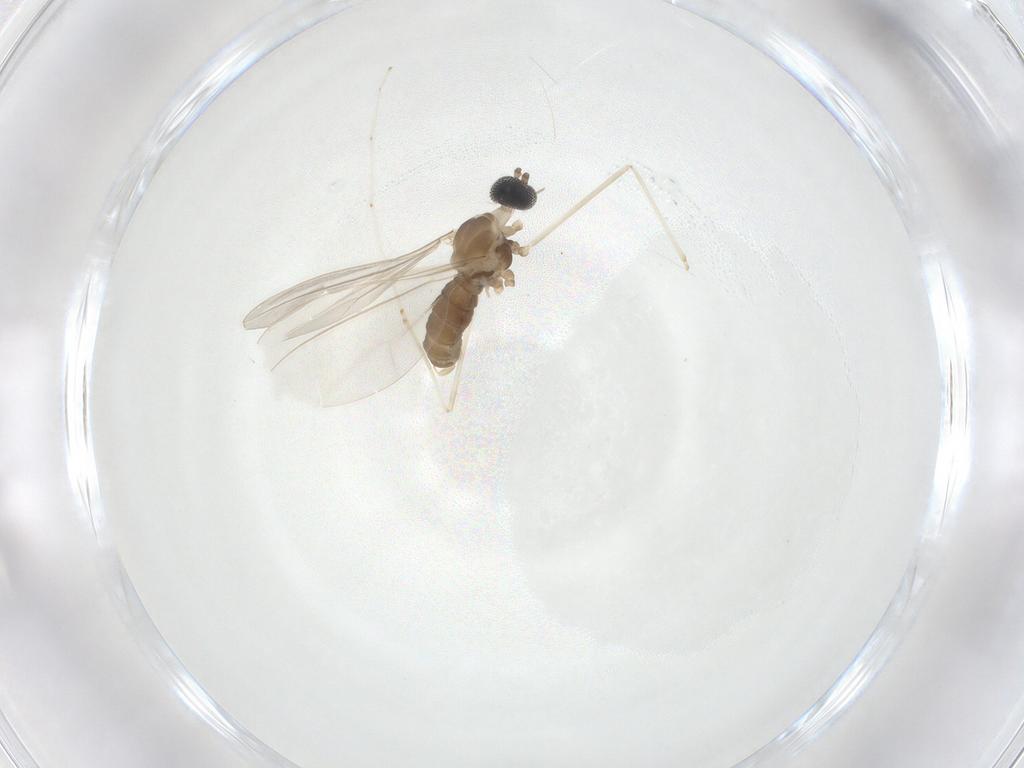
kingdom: Animalia
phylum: Arthropoda
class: Insecta
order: Diptera
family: Cecidomyiidae
